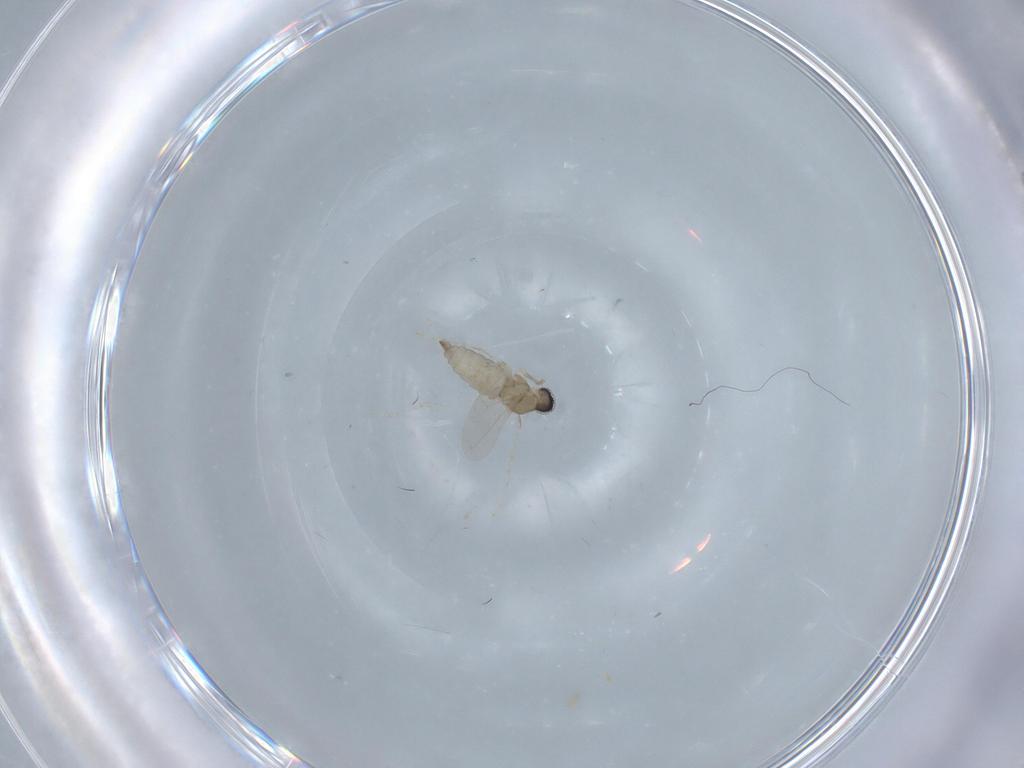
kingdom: Animalia
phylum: Arthropoda
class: Insecta
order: Diptera
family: Cecidomyiidae
